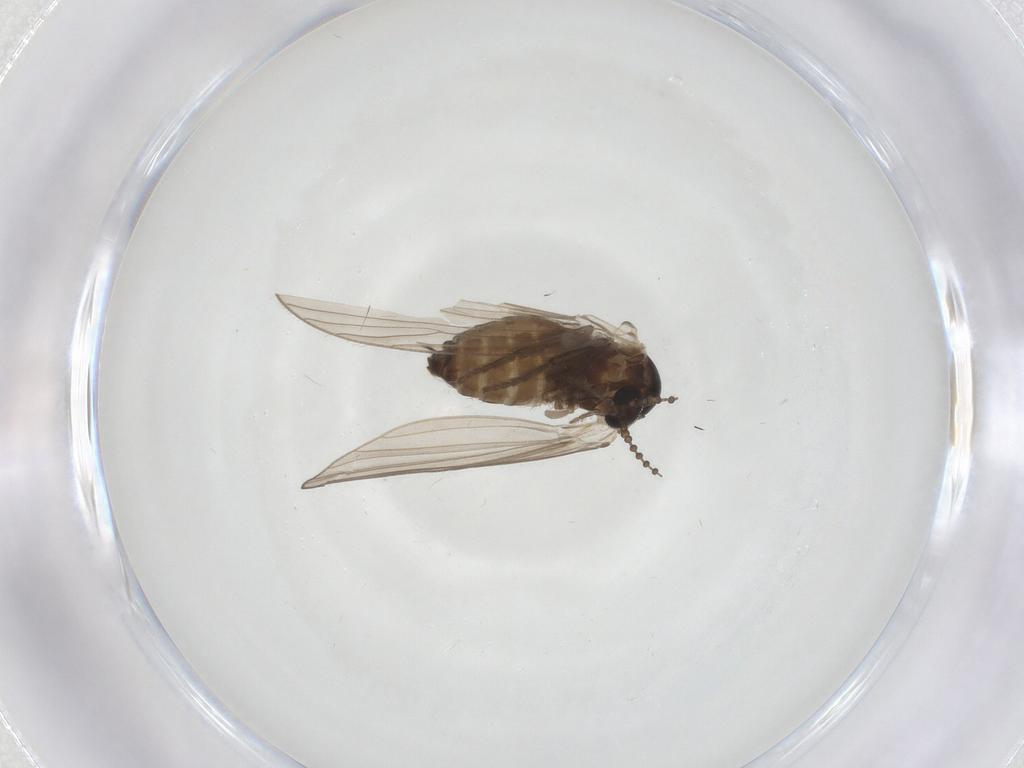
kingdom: Animalia
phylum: Arthropoda
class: Insecta
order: Diptera
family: Psychodidae
